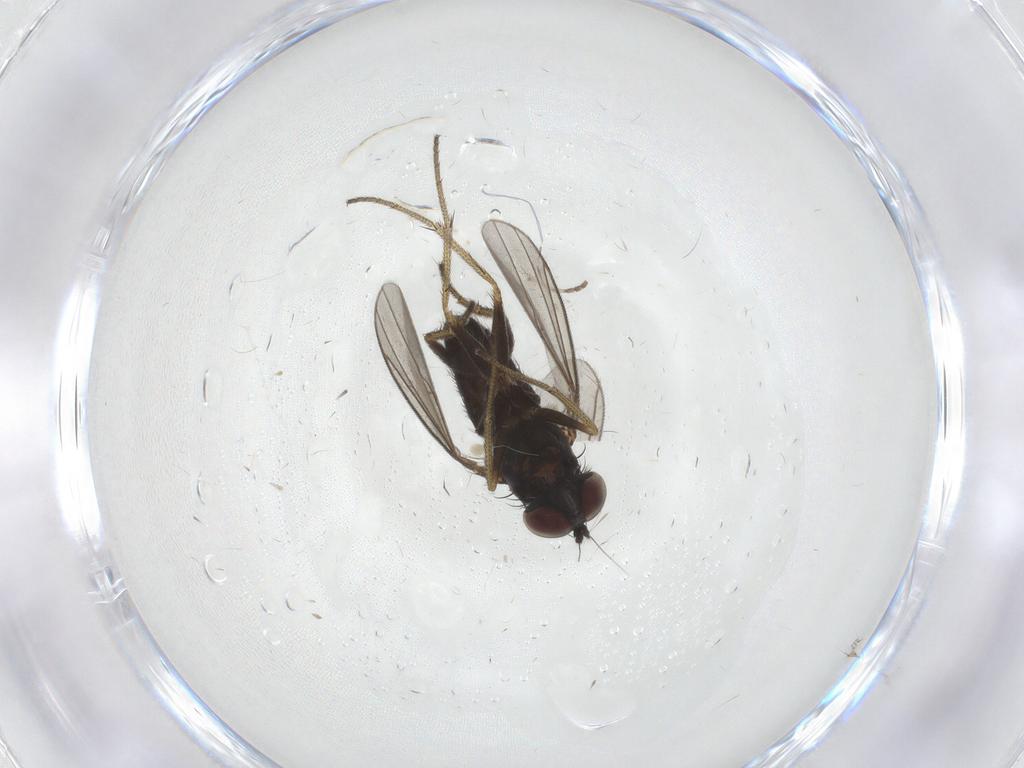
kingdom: Animalia
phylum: Arthropoda
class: Insecta
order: Diptera
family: Dolichopodidae
